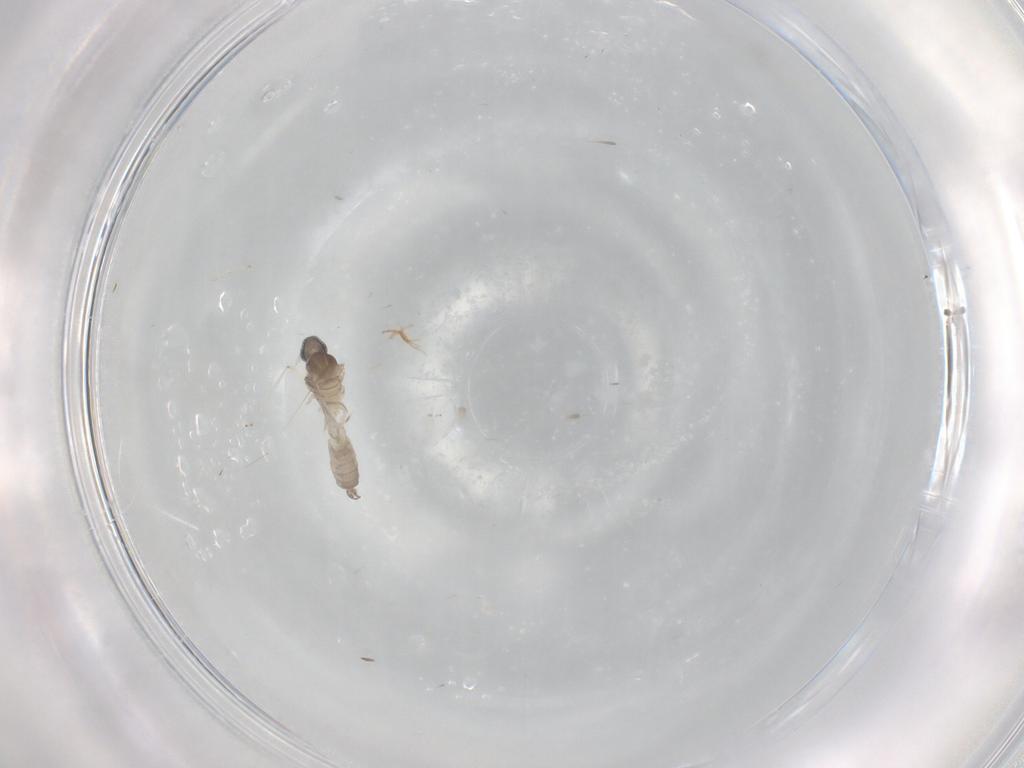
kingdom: Animalia
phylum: Arthropoda
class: Insecta
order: Diptera
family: Cecidomyiidae
